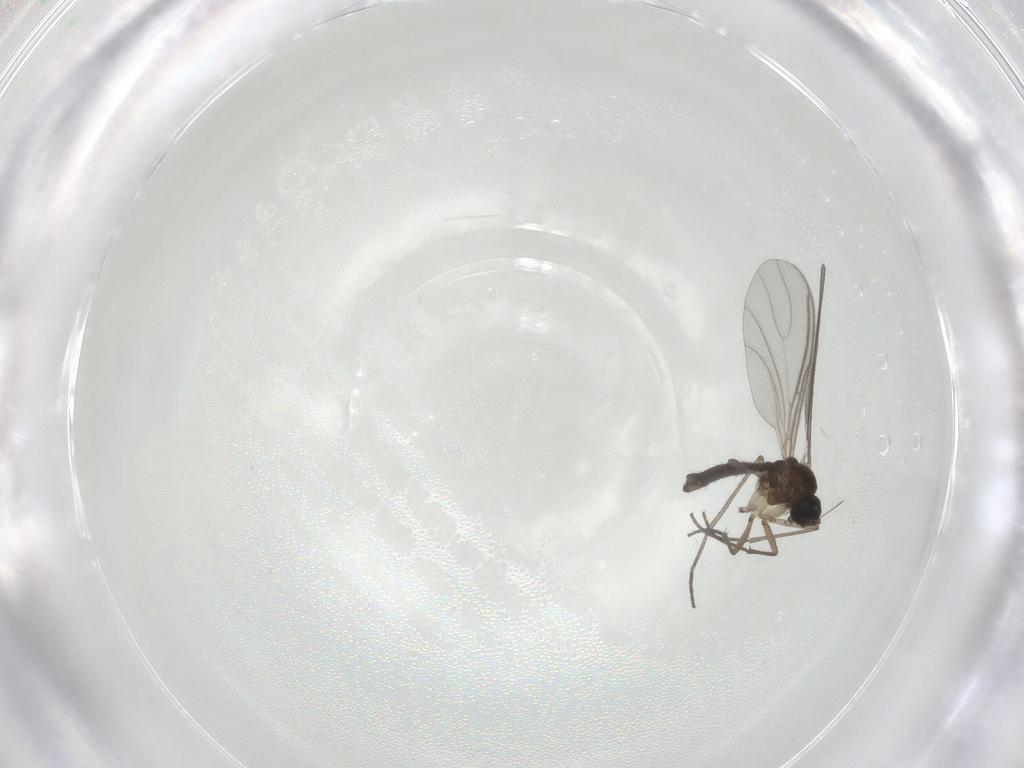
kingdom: Animalia
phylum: Arthropoda
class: Insecta
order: Diptera
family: Sciaridae
